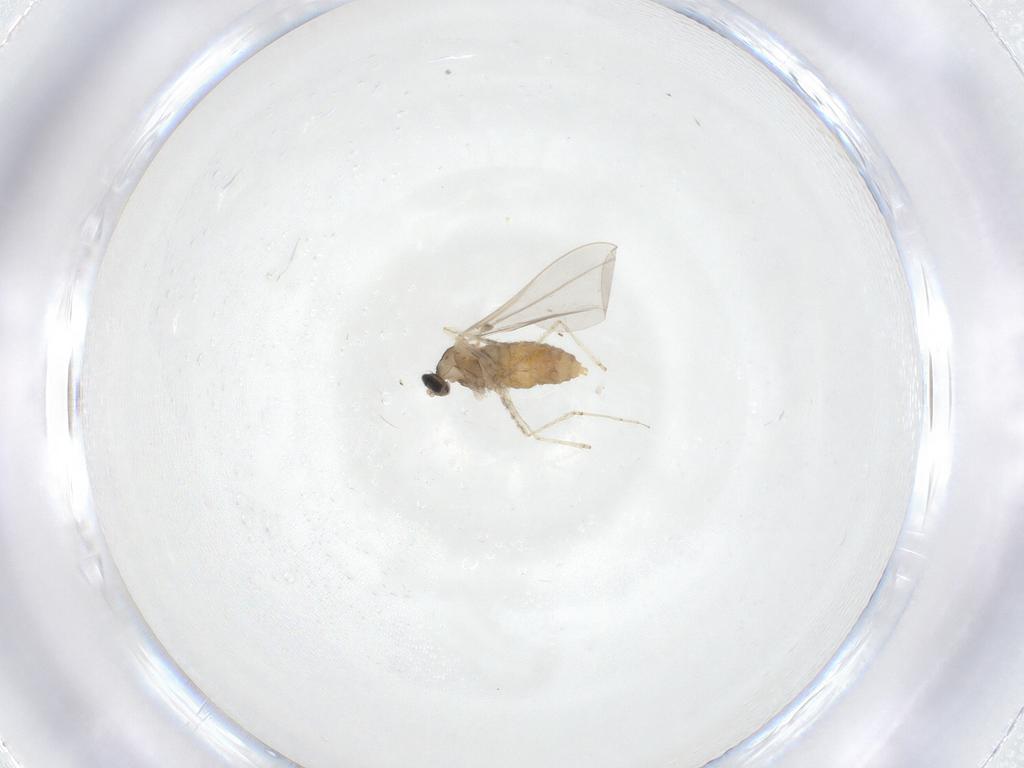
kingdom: Animalia
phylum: Arthropoda
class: Insecta
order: Diptera
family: Cecidomyiidae
